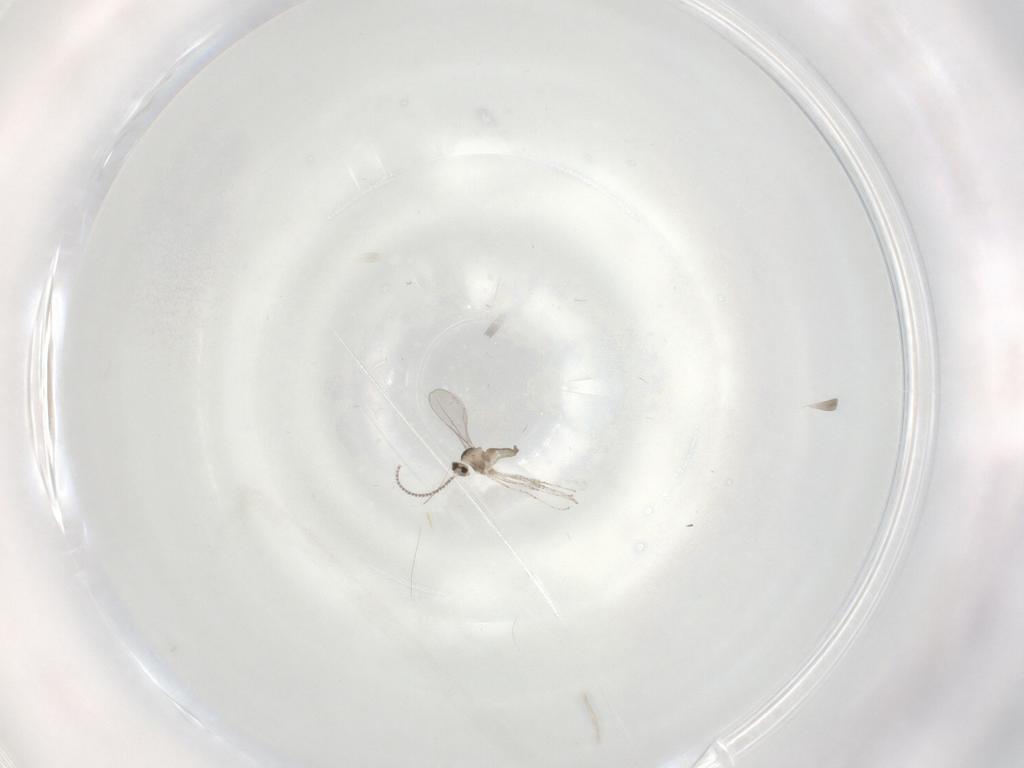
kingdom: Animalia
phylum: Arthropoda
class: Insecta
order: Diptera
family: Cecidomyiidae
